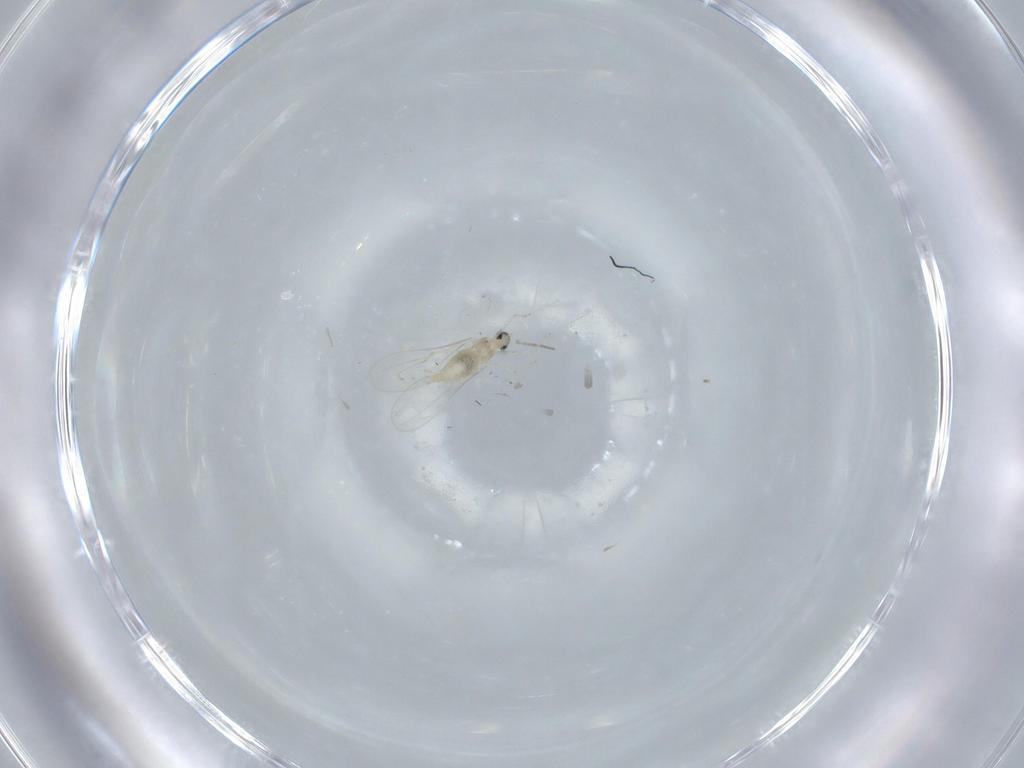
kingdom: Animalia
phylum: Arthropoda
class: Insecta
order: Diptera
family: Cecidomyiidae
